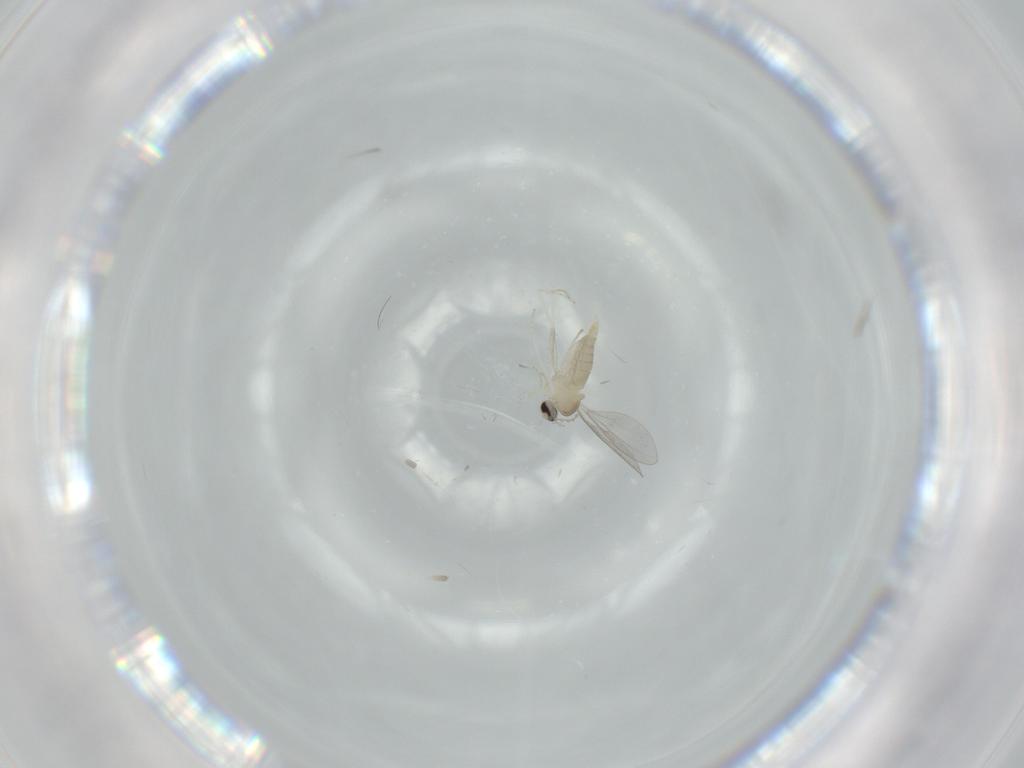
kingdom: Animalia
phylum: Arthropoda
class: Insecta
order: Diptera
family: Cecidomyiidae
